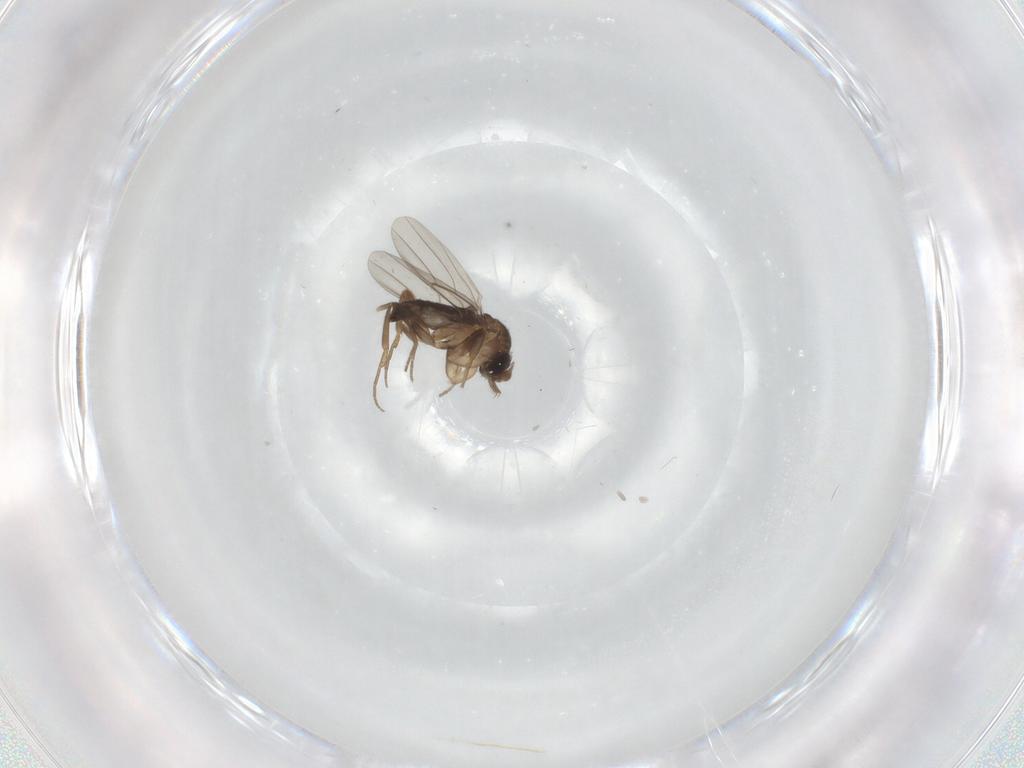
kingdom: Animalia
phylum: Arthropoda
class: Insecta
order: Diptera
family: Phoridae
